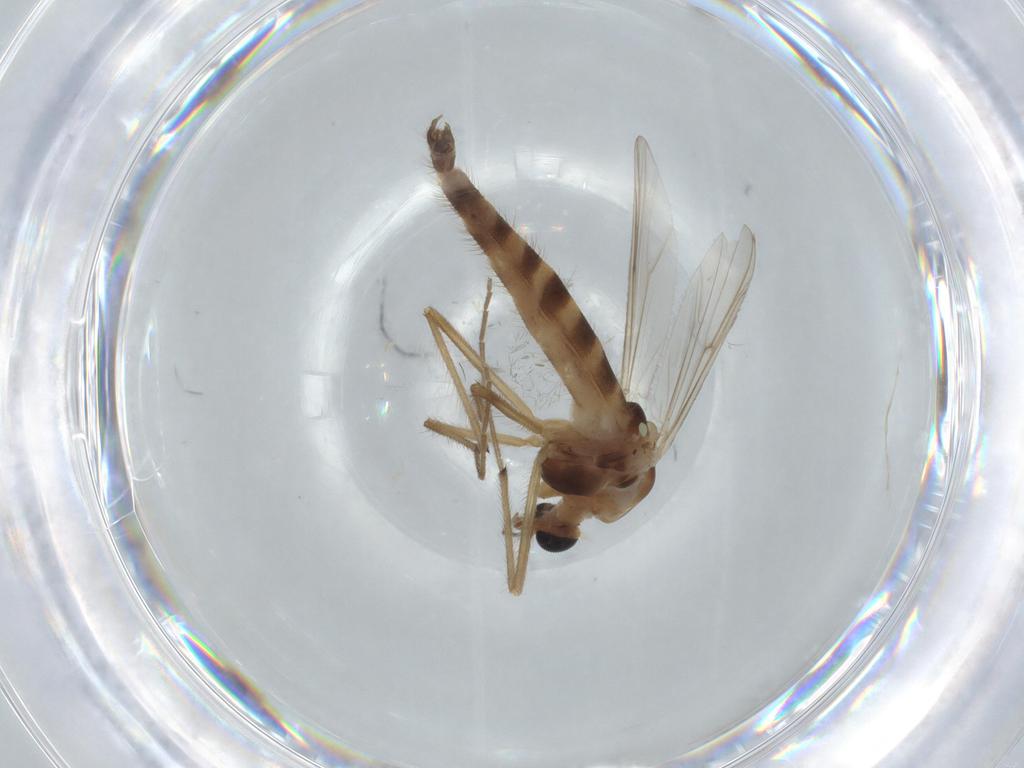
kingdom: Animalia
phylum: Arthropoda
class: Insecta
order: Diptera
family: Chironomidae
